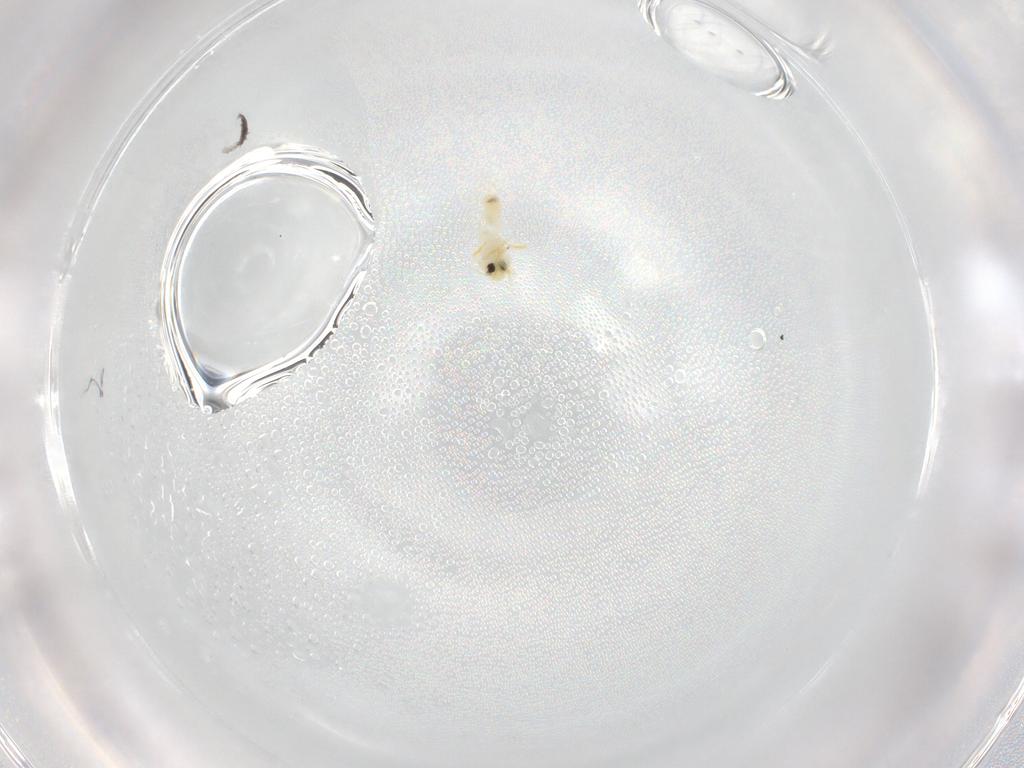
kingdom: Animalia
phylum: Arthropoda
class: Insecta
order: Hemiptera
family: Aleyrodidae
